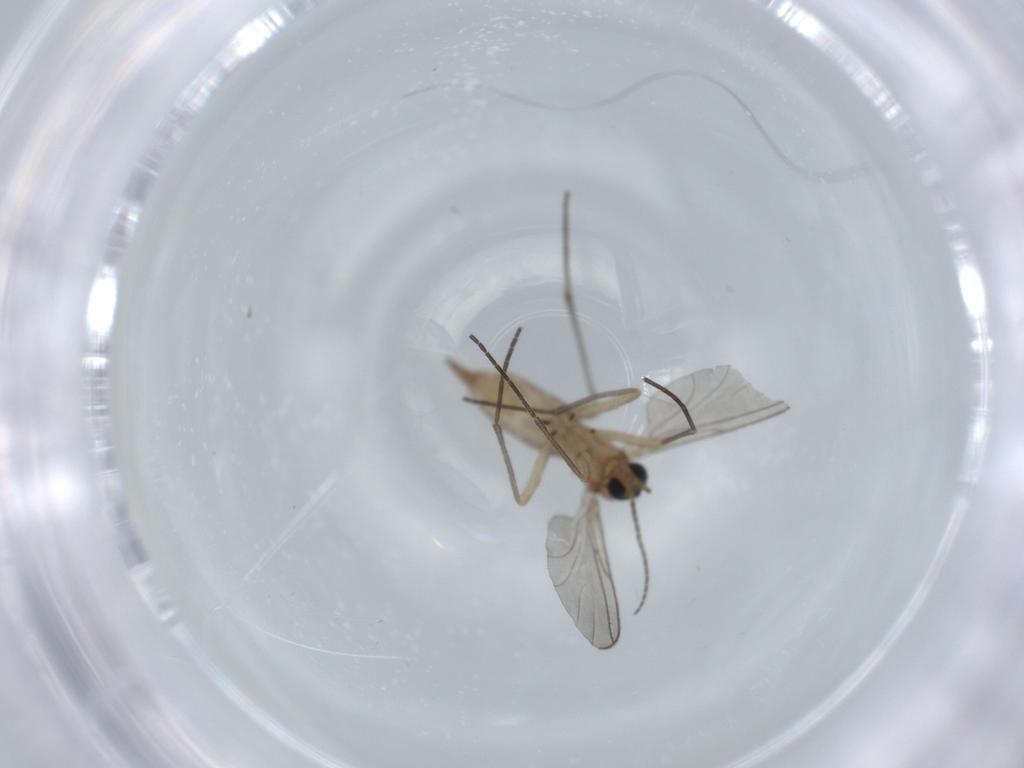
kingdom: Animalia
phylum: Arthropoda
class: Insecta
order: Diptera
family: Sciaridae
